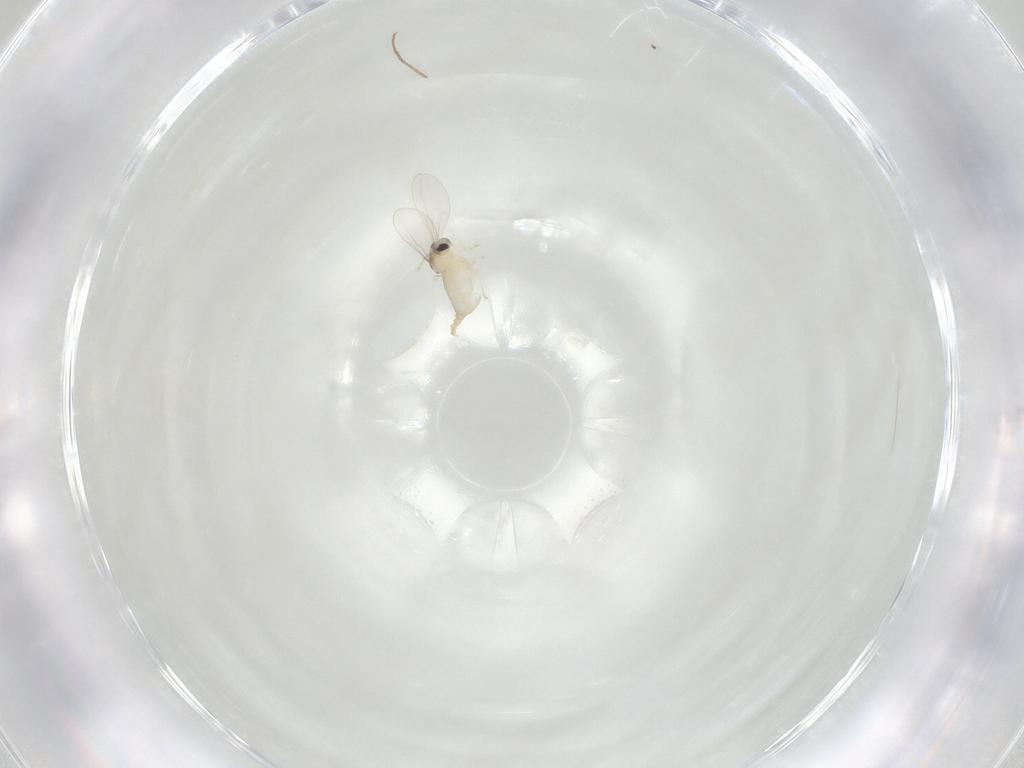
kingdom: Animalia
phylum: Arthropoda
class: Insecta
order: Diptera
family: Cecidomyiidae
